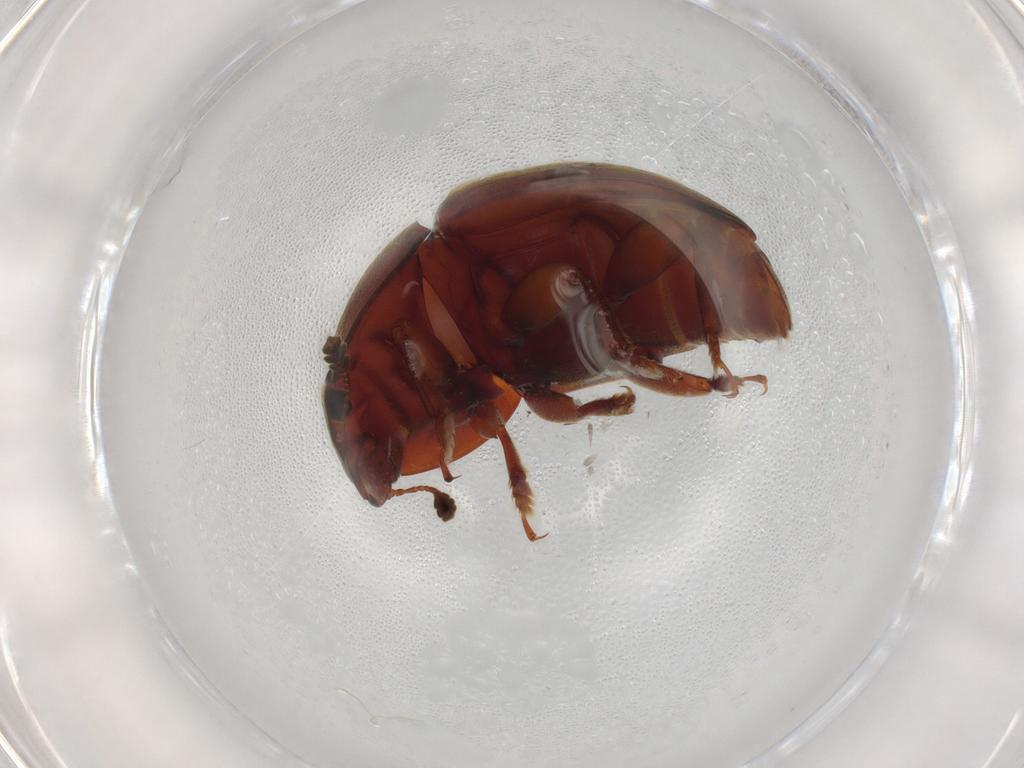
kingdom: Animalia
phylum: Arthropoda
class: Insecta
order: Coleoptera
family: Nitidulidae
